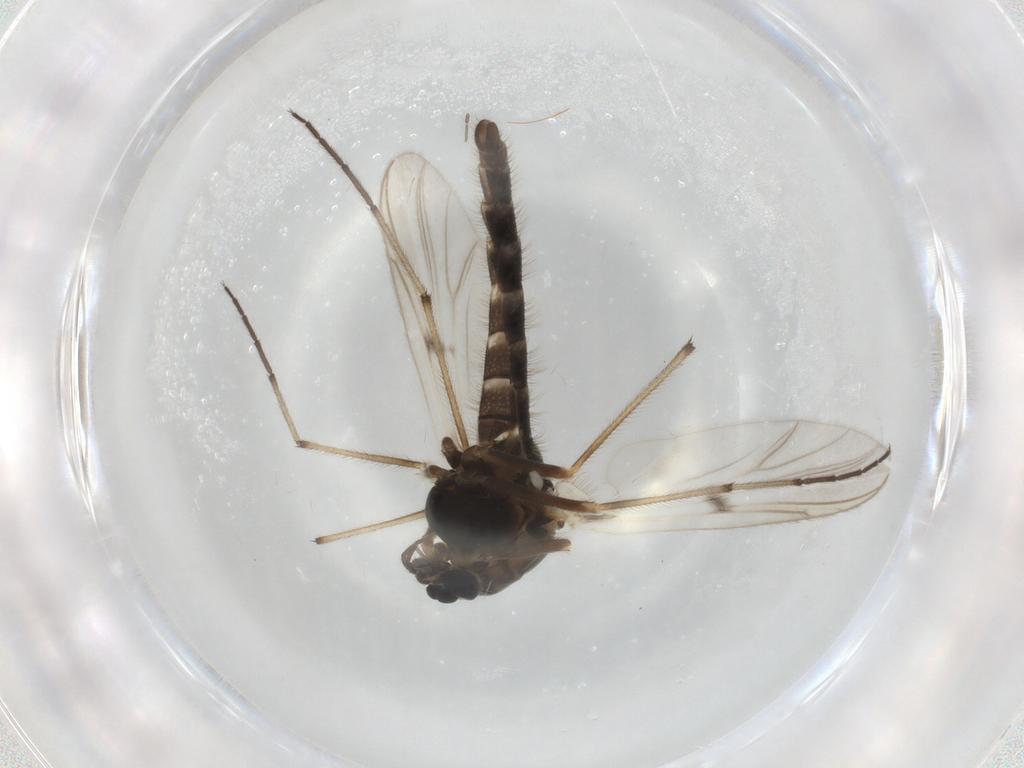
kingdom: Animalia
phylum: Arthropoda
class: Insecta
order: Diptera
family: Chironomidae
